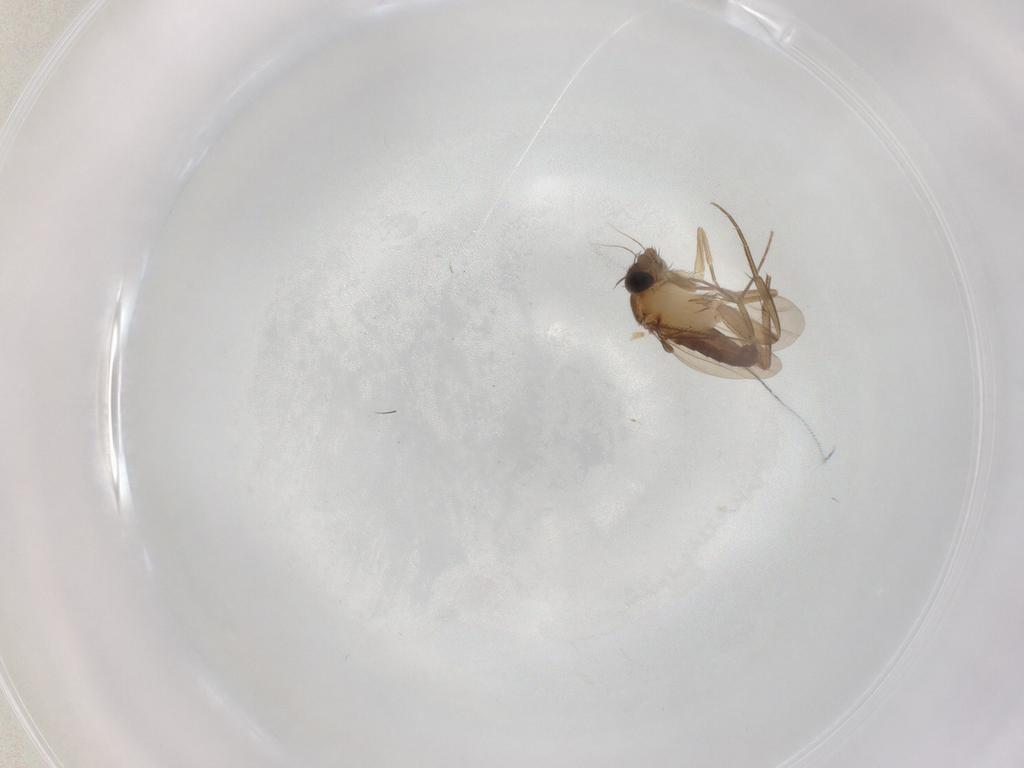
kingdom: Animalia
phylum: Arthropoda
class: Insecta
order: Diptera
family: Phoridae
